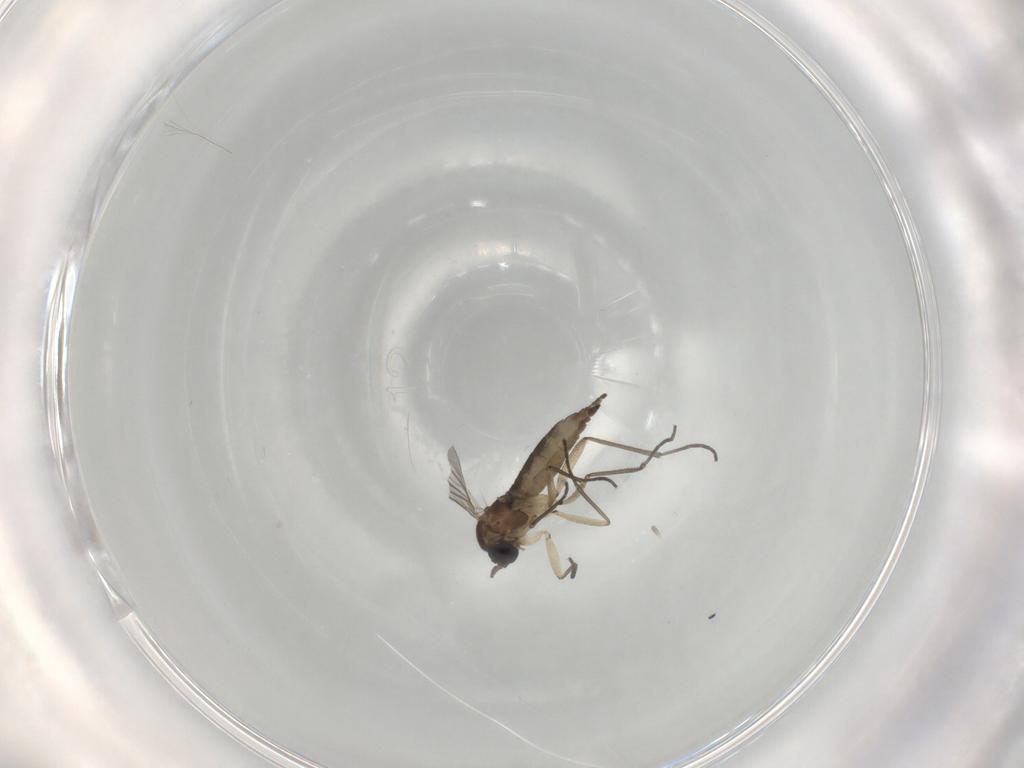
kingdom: Animalia
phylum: Arthropoda
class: Insecta
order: Diptera
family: Sciaridae
